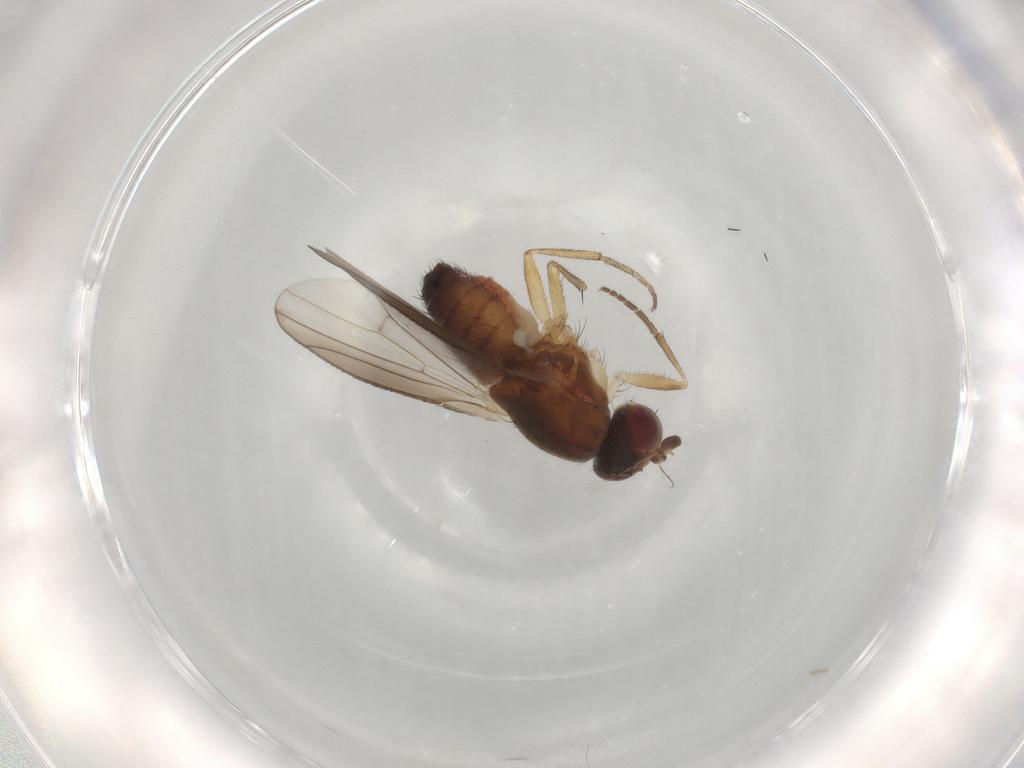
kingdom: Animalia
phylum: Arthropoda
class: Insecta
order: Diptera
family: Heleomyzidae
